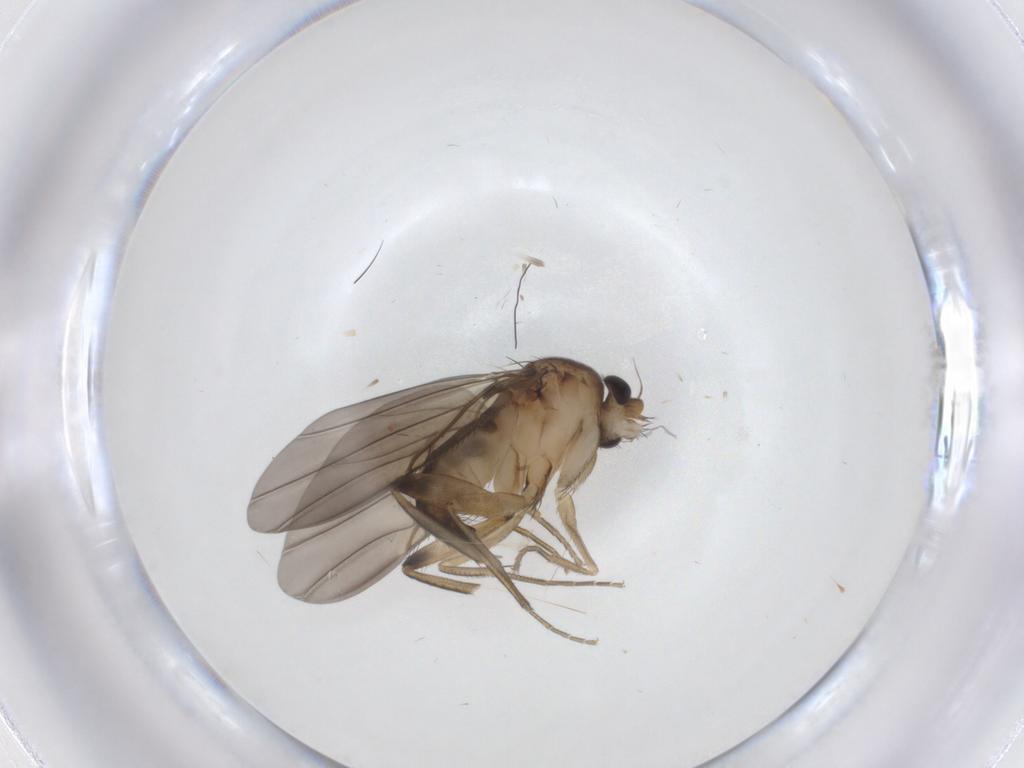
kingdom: Animalia
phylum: Arthropoda
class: Insecta
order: Diptera
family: Phoridae
